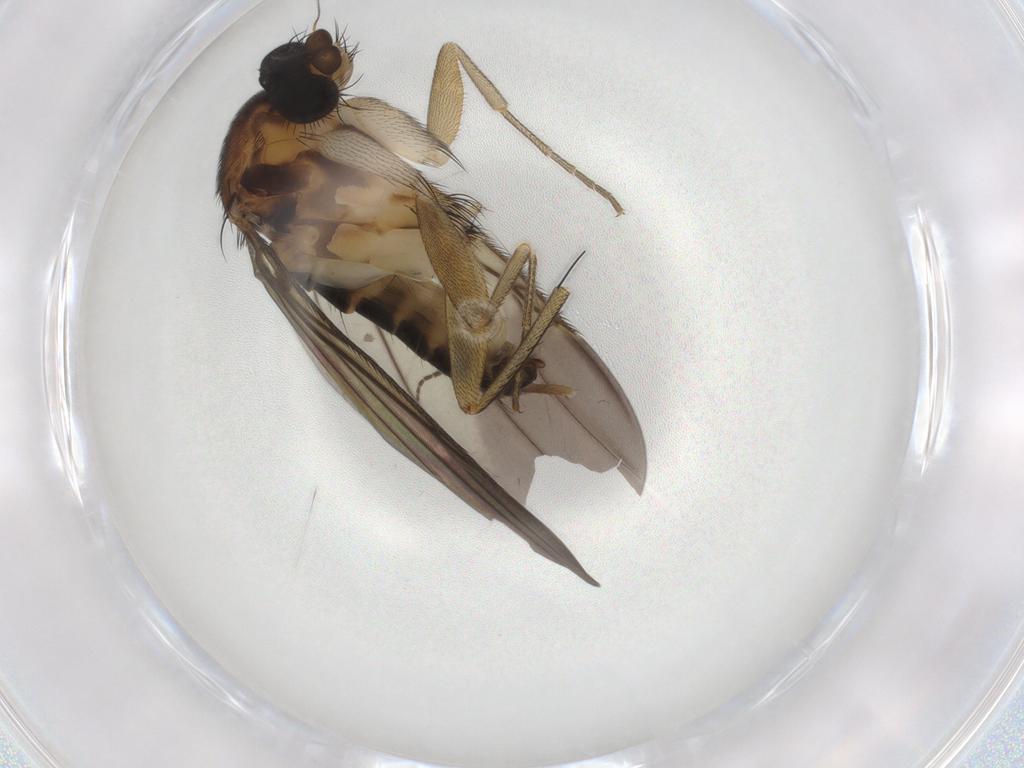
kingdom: Animalia
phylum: Arthropoda
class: Insecta
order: Diptera
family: Phoridae
